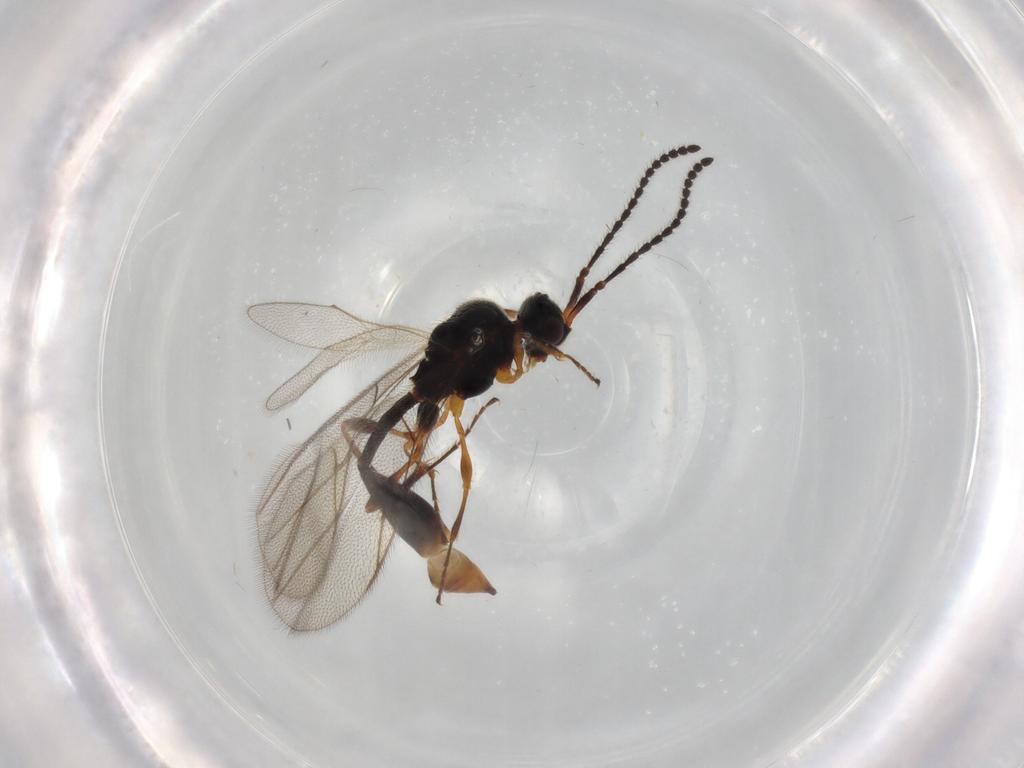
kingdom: Animalia
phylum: Arthropoda
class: Insecta
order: Hymenoptera
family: Diapriidae
